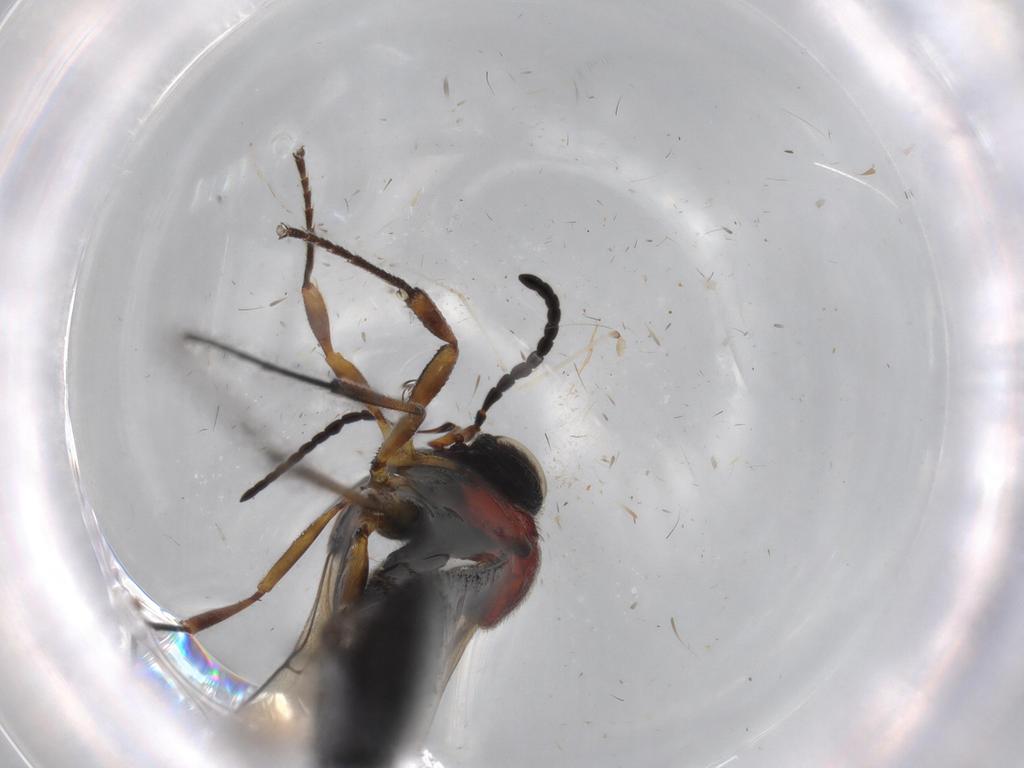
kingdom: Animalia
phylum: Arthropoda
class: Insecta
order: Hymenoptera
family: Scelionidae
